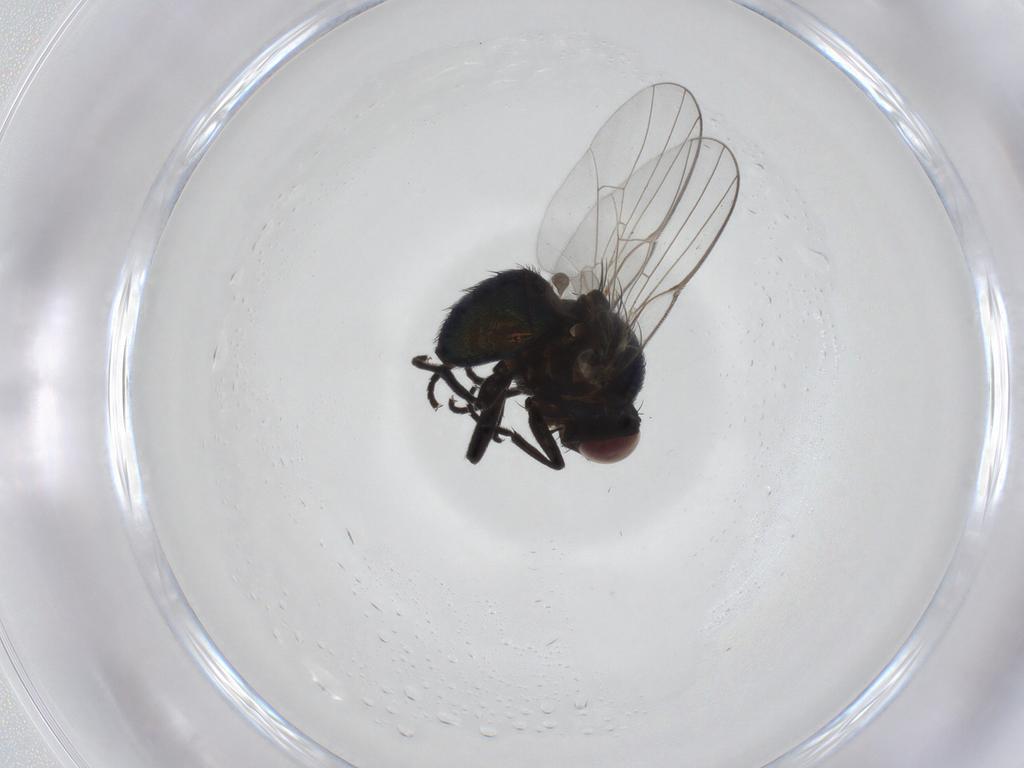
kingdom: Animalia
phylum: Arthropoda
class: Insecta
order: Diptera
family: Agromyzidae
